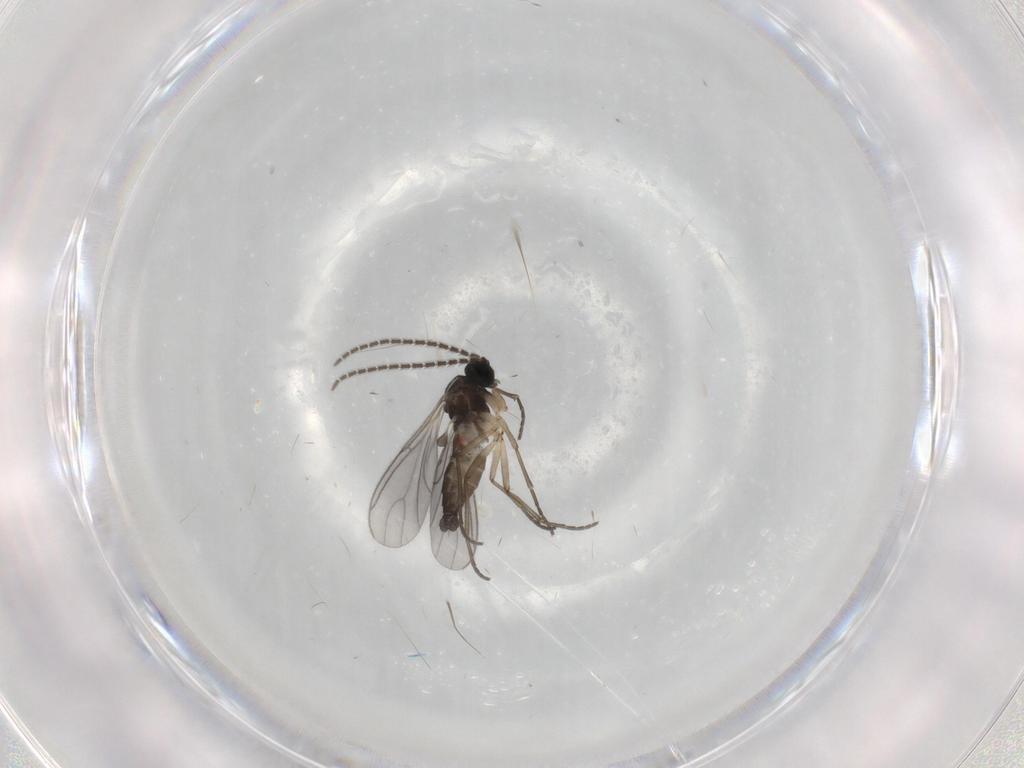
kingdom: Animalia
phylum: Arthropoda
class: Insecta
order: Diptera
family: Sciaridae
